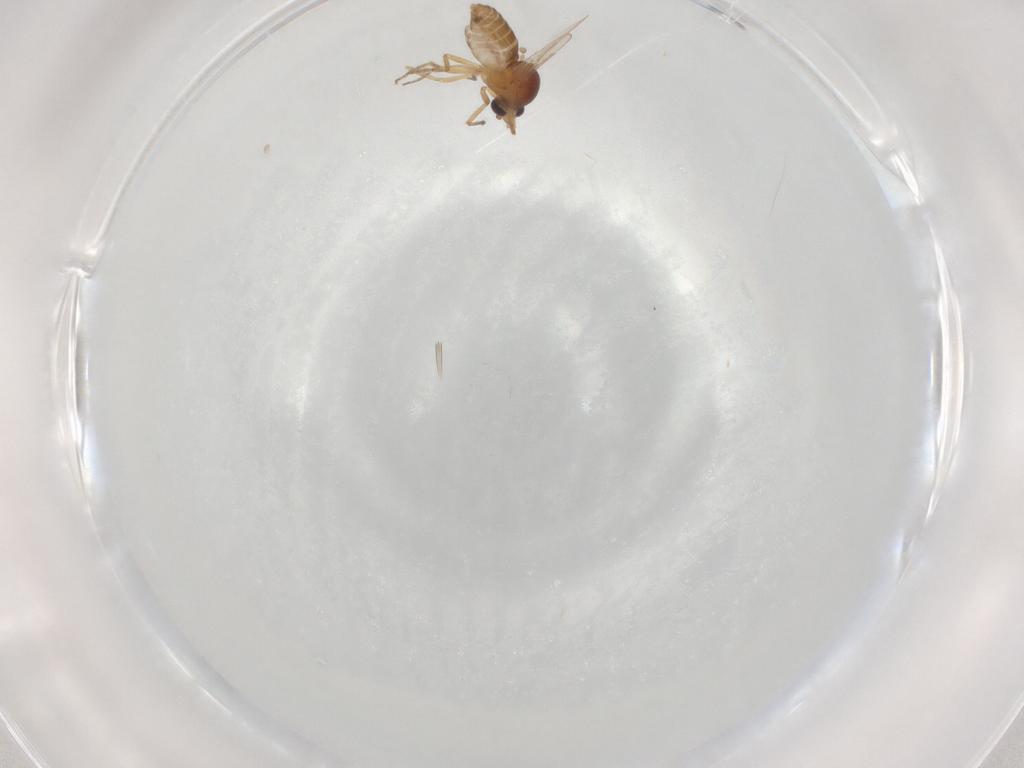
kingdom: Animalia
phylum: Arthropoda
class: Insecta
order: Diptera
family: Ceratopogonidae
